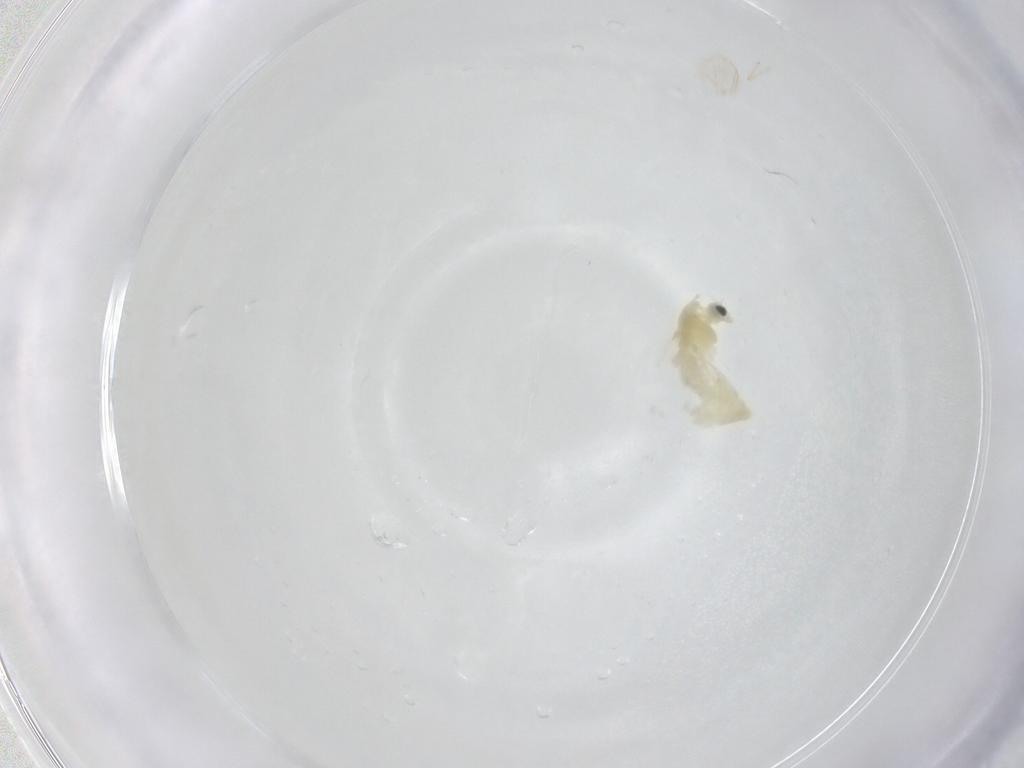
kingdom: Animalia
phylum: Arthropoda
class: Insecta
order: Diptera
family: Chironomidae
